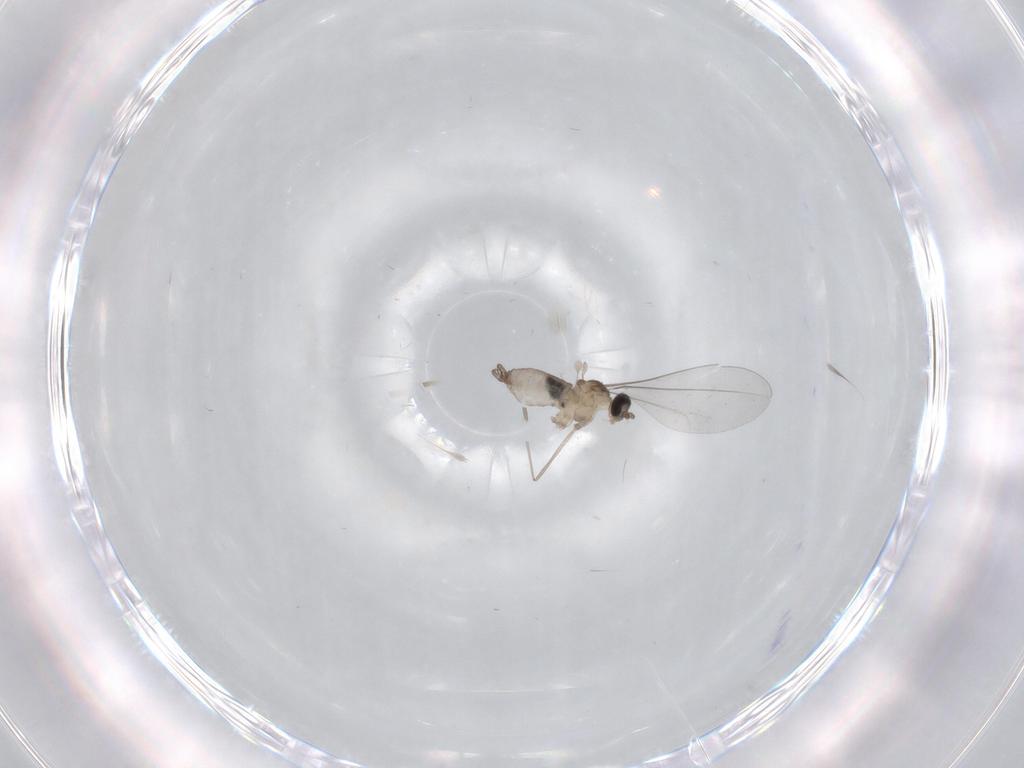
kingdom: Animalia
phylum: Arthropoda
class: Insecta
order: Diptera
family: Cecidomyiidae
